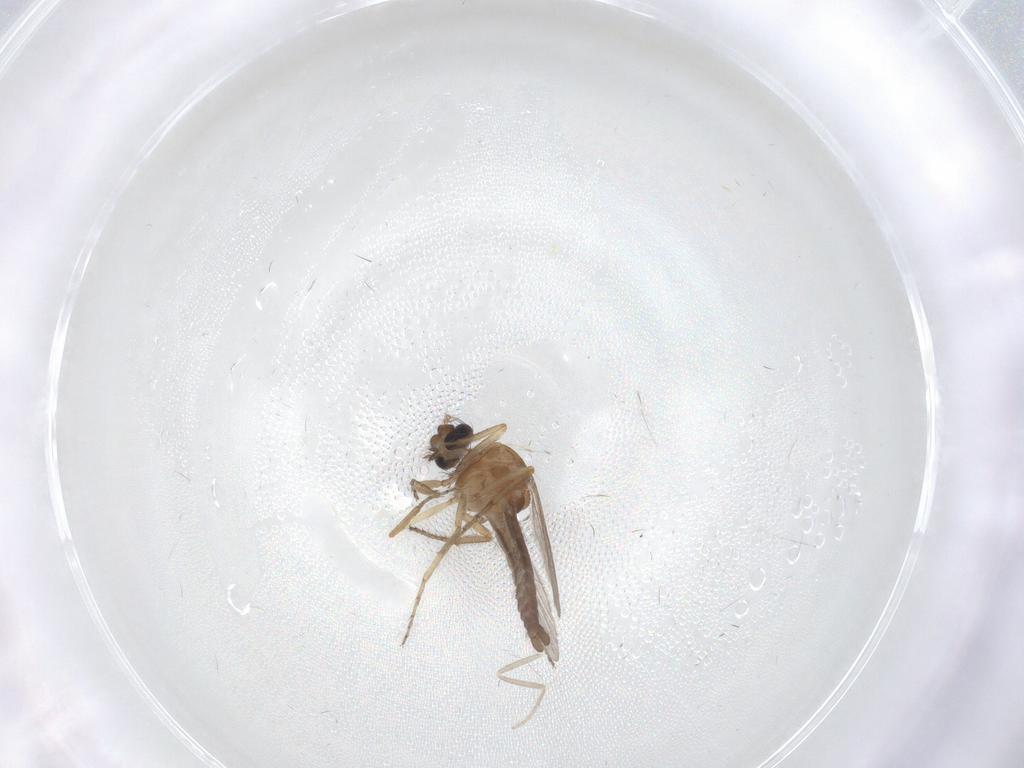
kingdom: Animalia
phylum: Arthropoda
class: Insecta
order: Diptera
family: Ceratopogonidae
